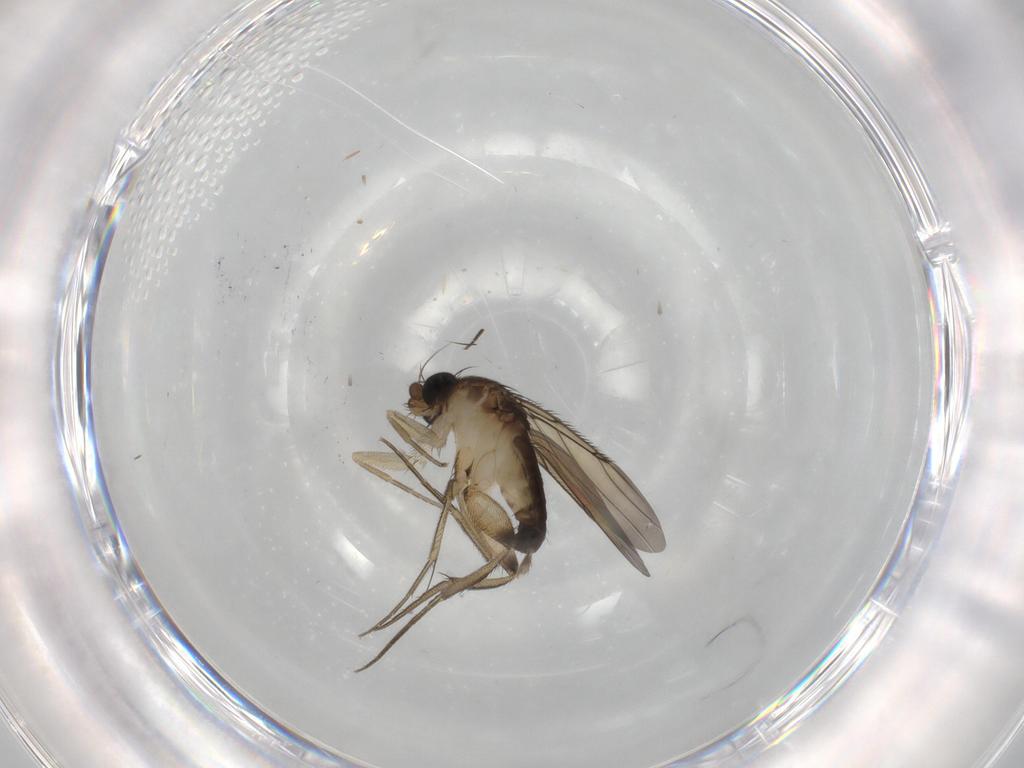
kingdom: Animalia
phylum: Arthropoda
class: Insecta
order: Diptera
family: Phoridae
